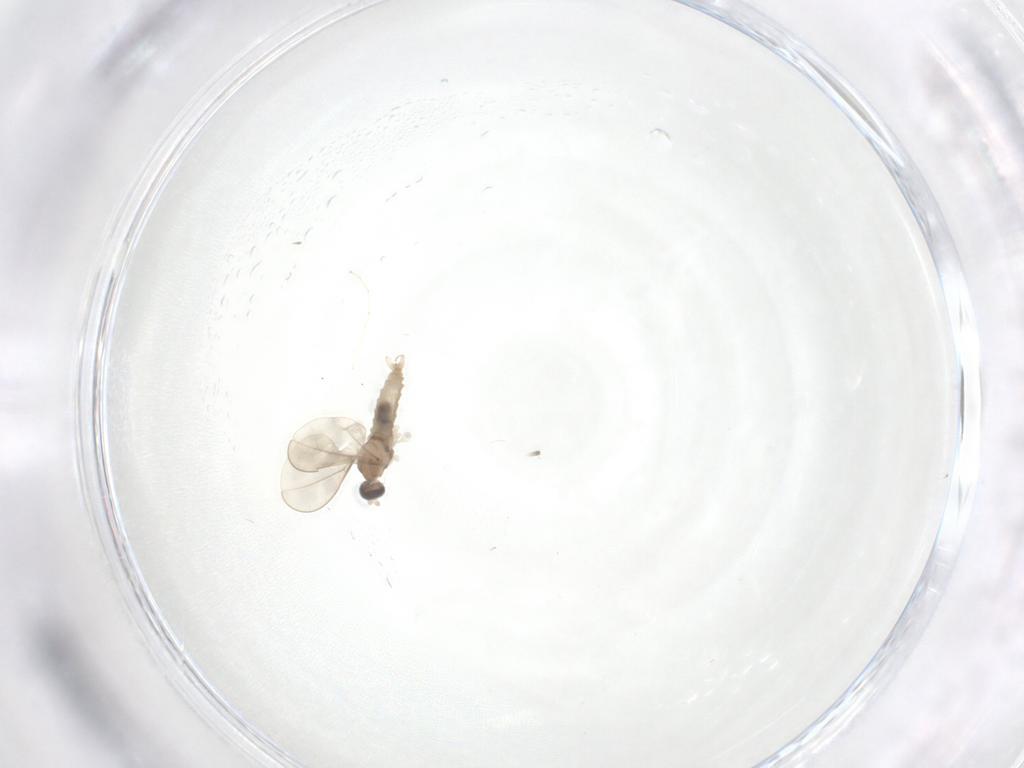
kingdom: Animalia
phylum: Arthropoda
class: Insecta
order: Diptera
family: Cecidomyiidae
